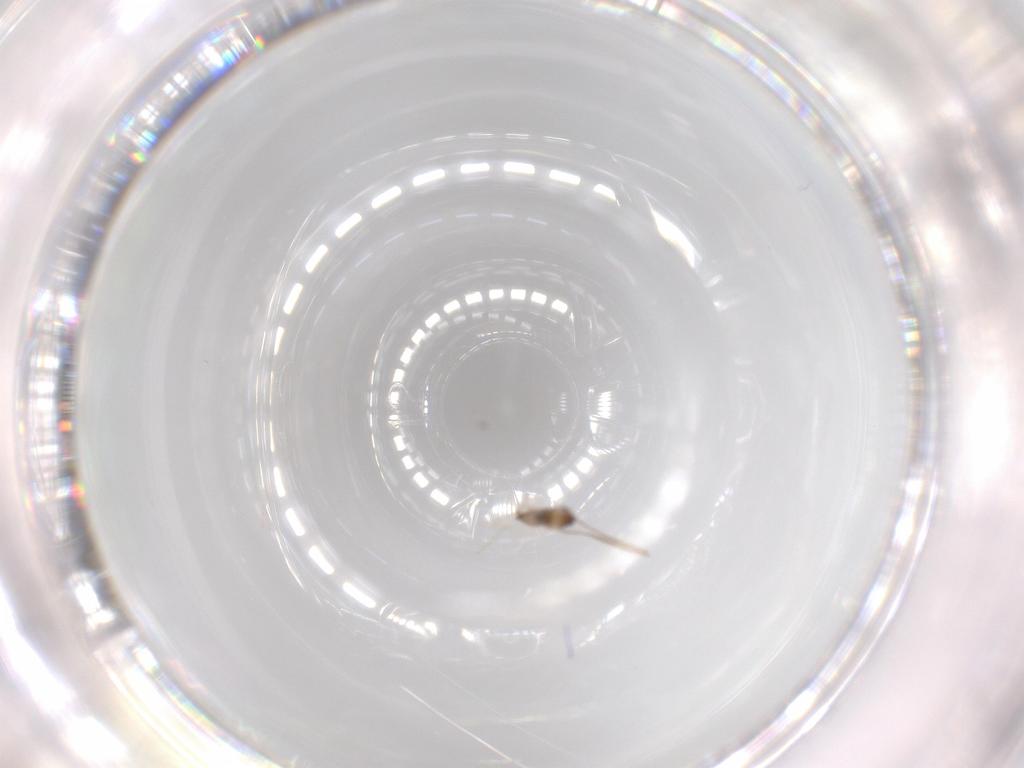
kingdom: Animalia
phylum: Arthropoda
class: Insecta
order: Diptera
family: Cecidomyiidae
